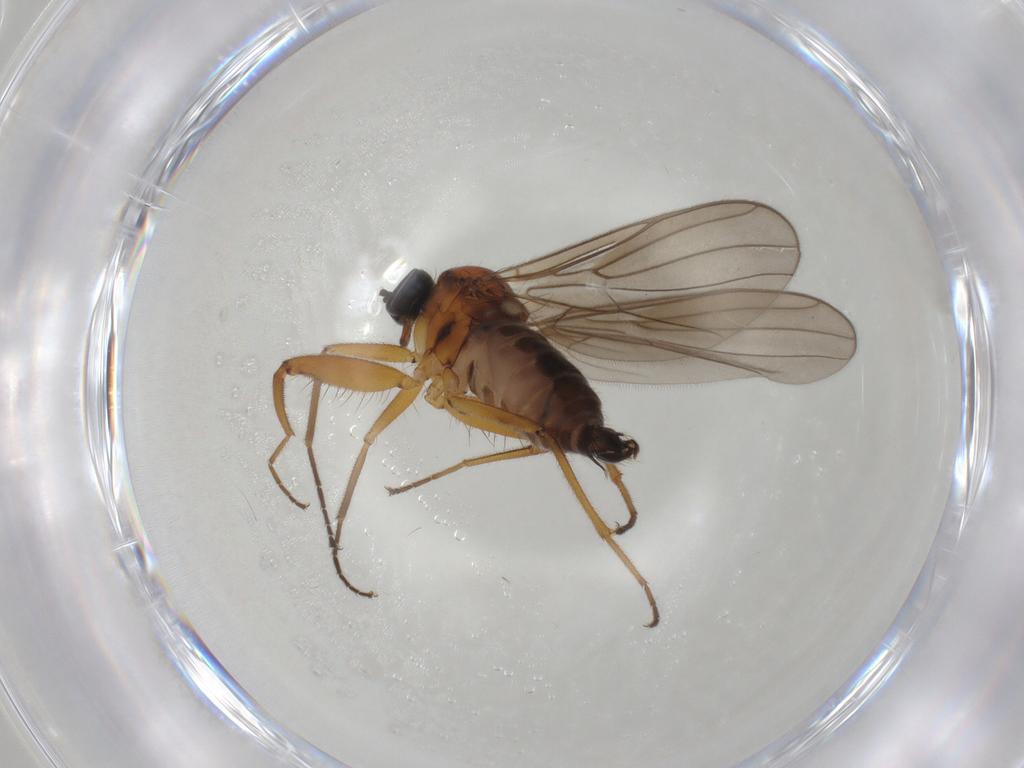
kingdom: Animalia
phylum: Arthropoda
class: Insecta
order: Diptera
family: Hybotidae
